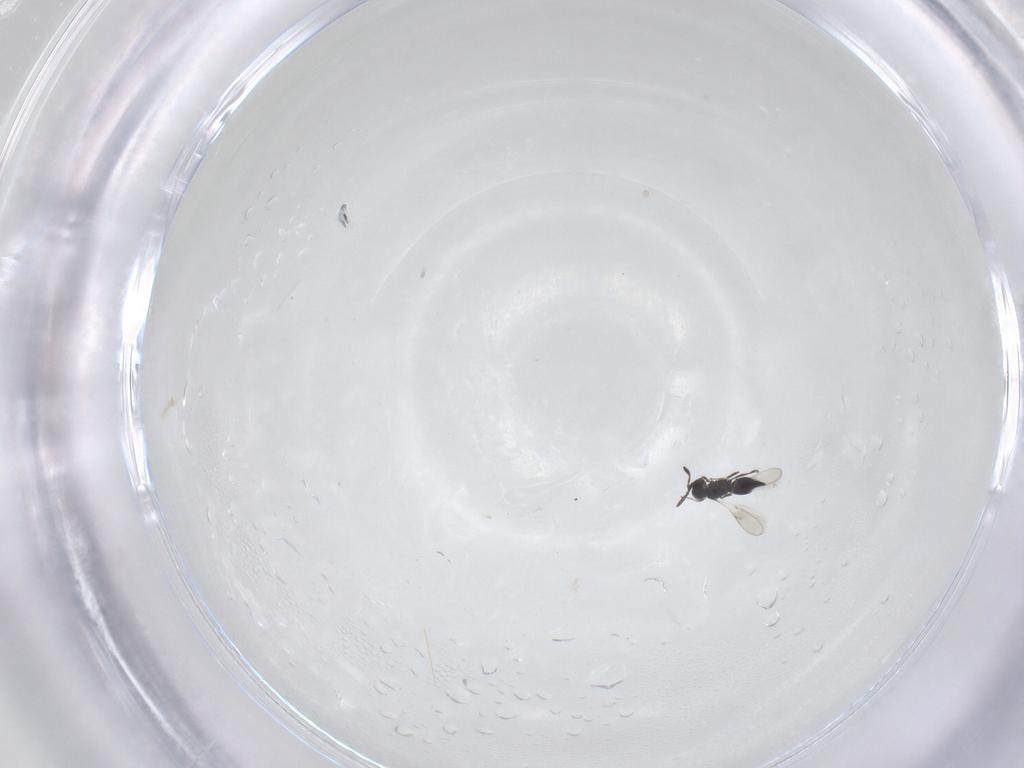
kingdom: Animalia
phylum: Arthropoda
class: Insecta
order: Hymenoptera
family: Scelionidae
